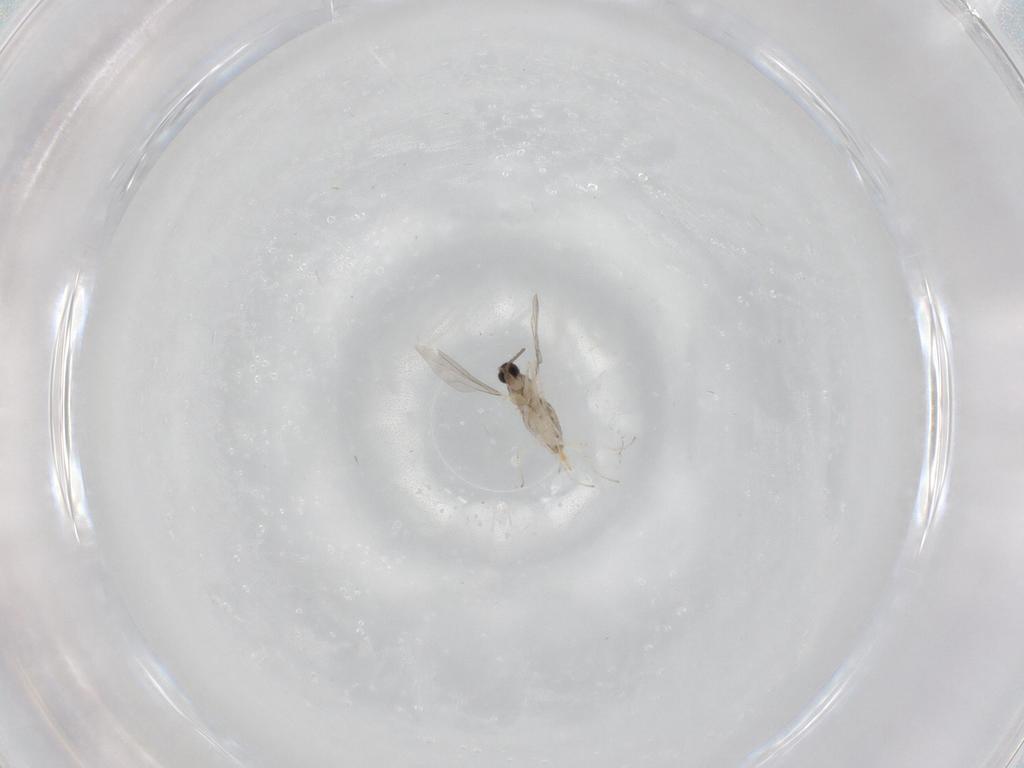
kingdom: Animalia
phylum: Arthropoda
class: Insecta
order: Diptera
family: Cecidomyiidae
